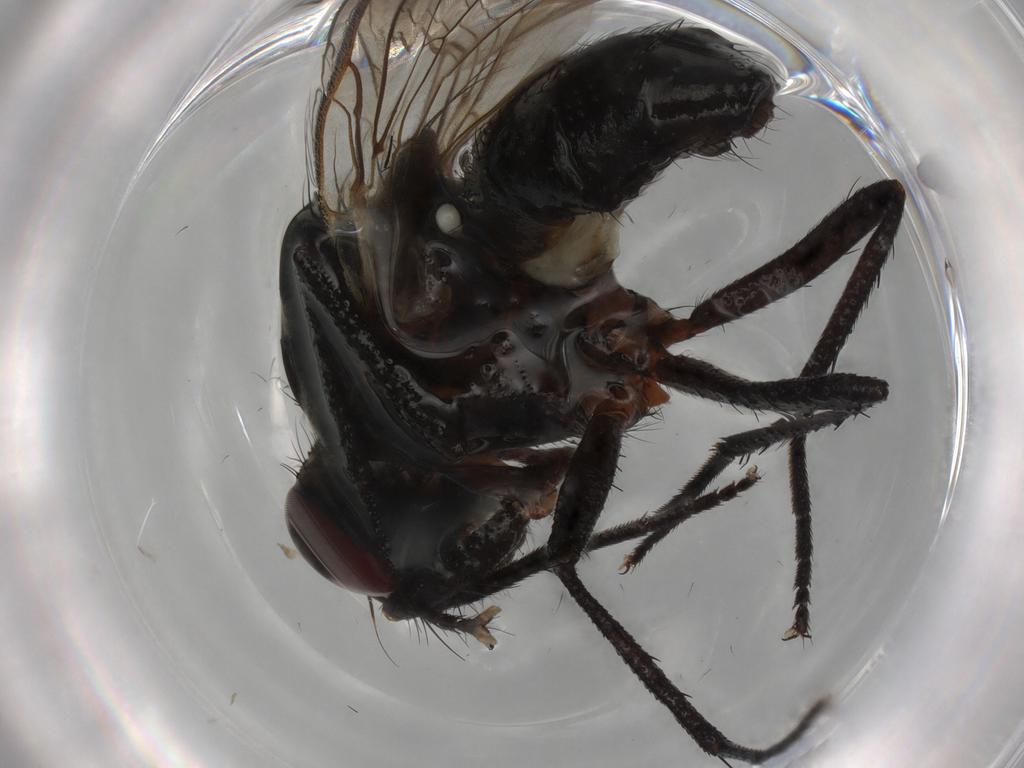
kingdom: Animalia
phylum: Arthropoda
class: Insecta
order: Diptera
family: Anthomyiidae
